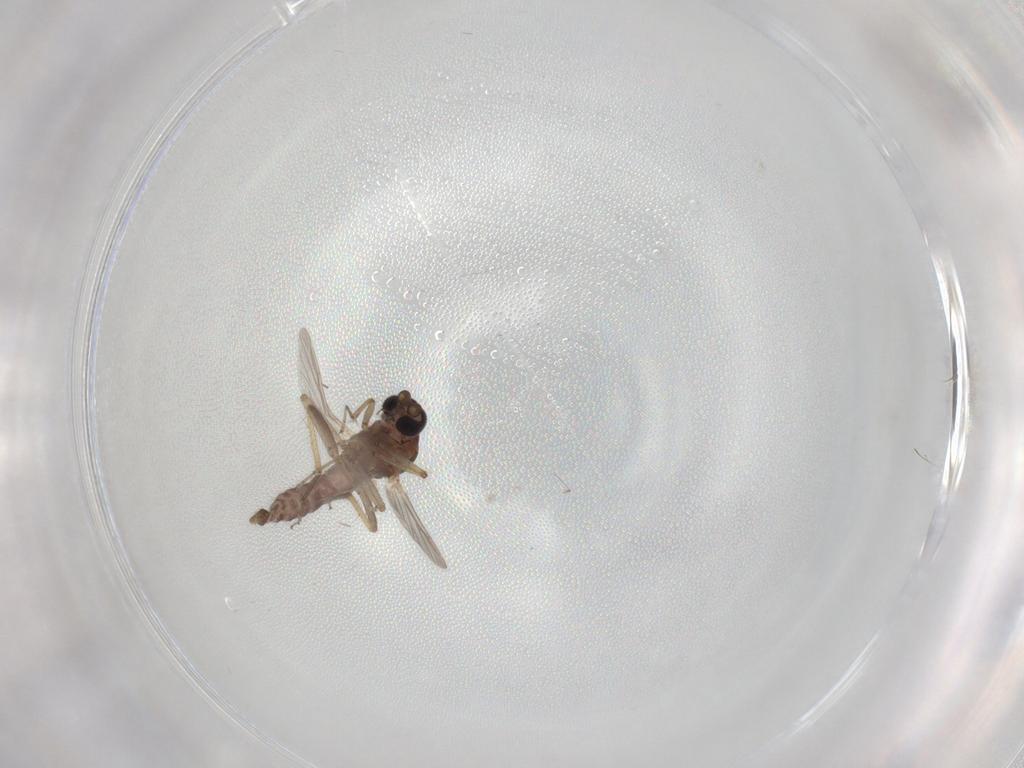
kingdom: Animalia
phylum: Arthropoda
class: Insecta
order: Diptera
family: Ceratopogonidae
